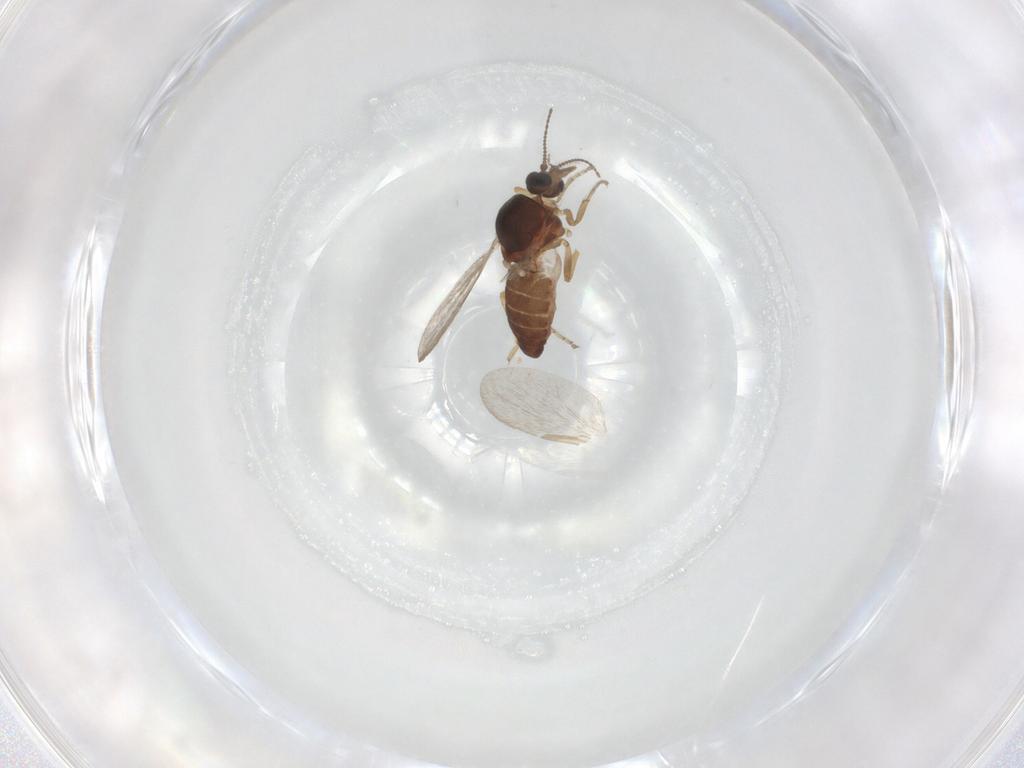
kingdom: Animalia
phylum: Arthropoda
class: Insecta
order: Diptera
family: Ceratopogonidae
